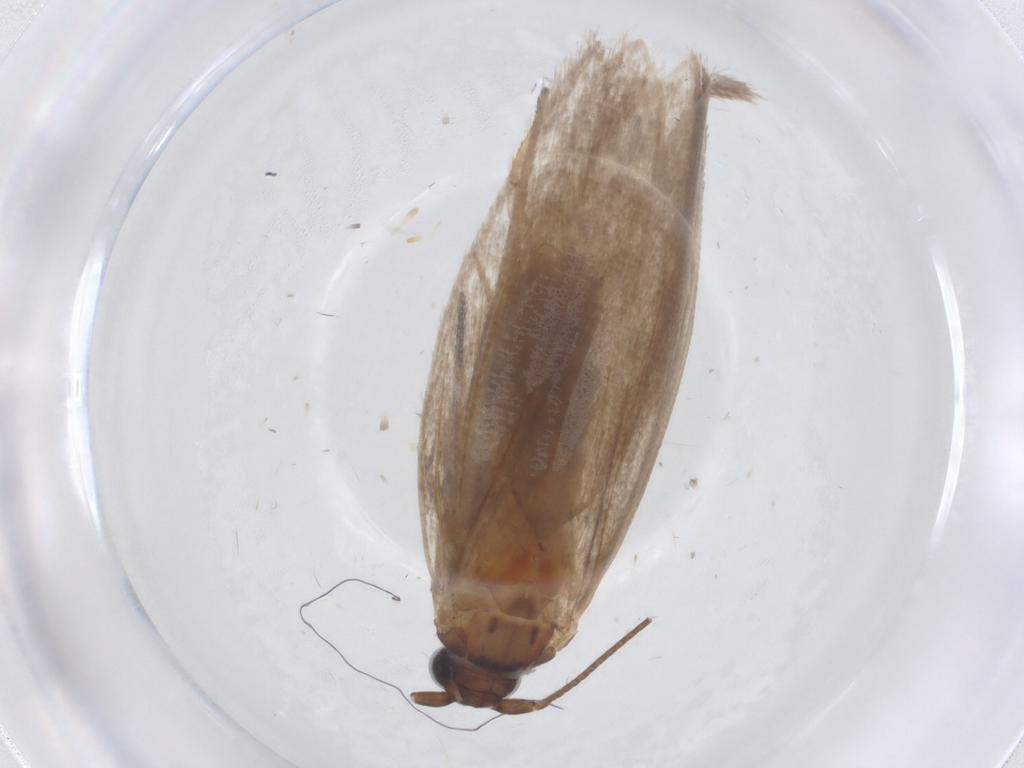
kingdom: Animalia
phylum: Arthropoda
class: Insecta
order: Lepidoptera
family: Roeslerstammiidae
